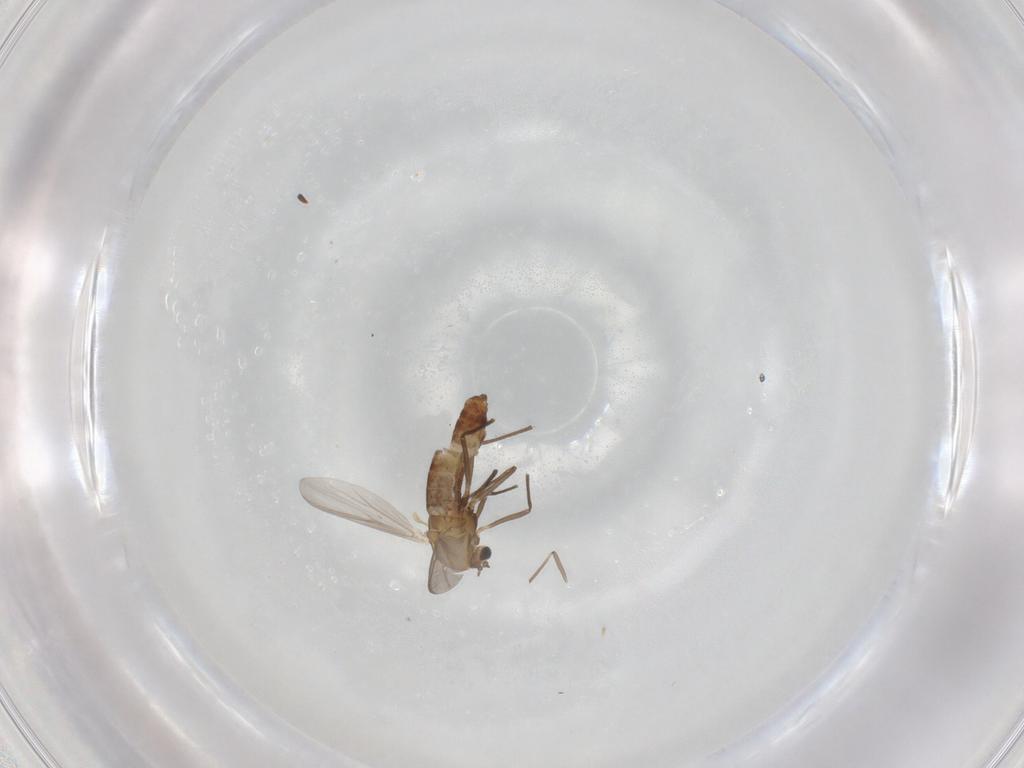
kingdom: Animalia
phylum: Arthropoda
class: Insecta
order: Diptera
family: Chironomidae
